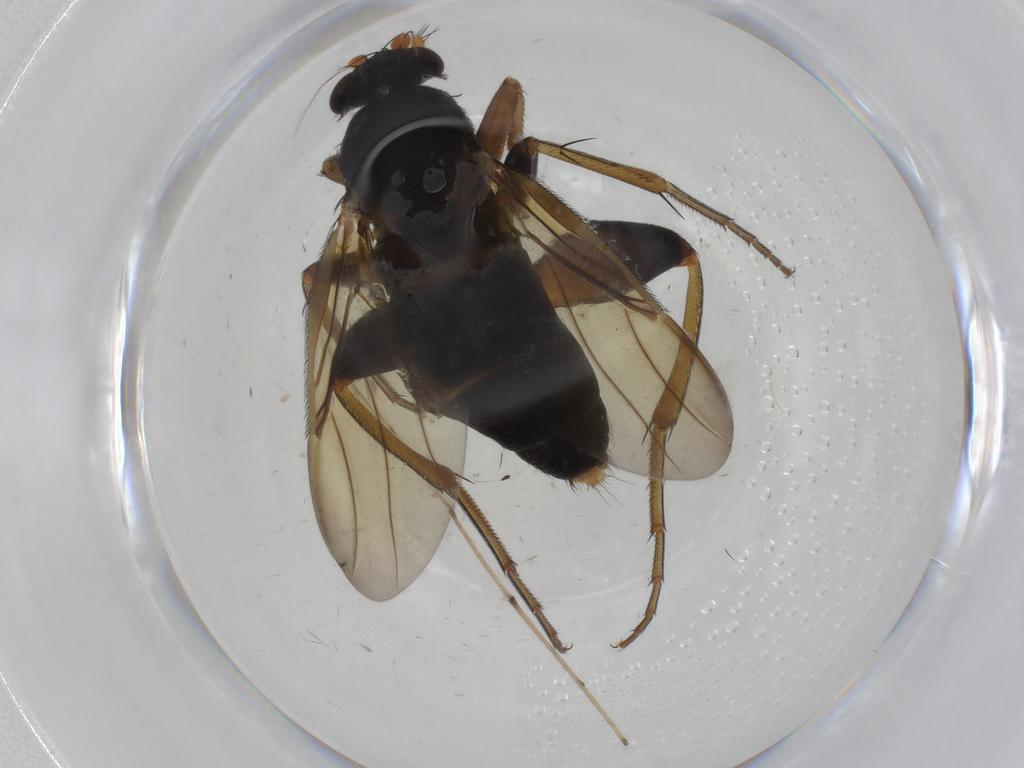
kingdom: Animalia
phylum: Arthropoda
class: Insecta
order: Diptera
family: Phoridae
